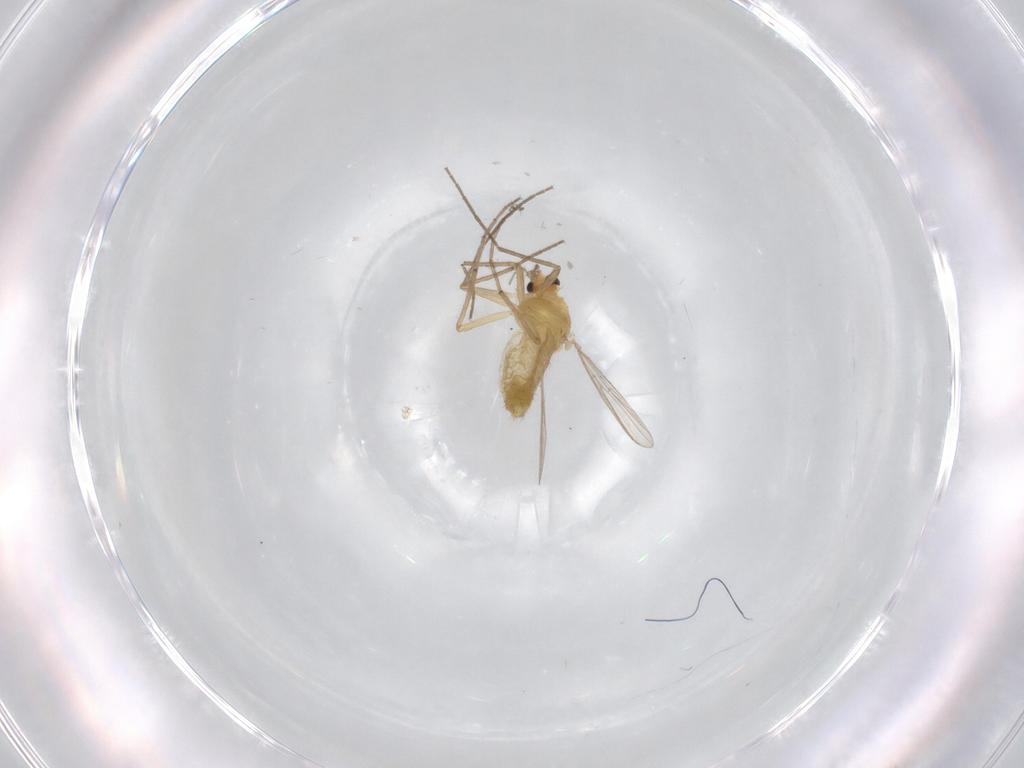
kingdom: Animalia
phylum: Arthropoda
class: Insecta
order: Diptera
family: Chironomidae
